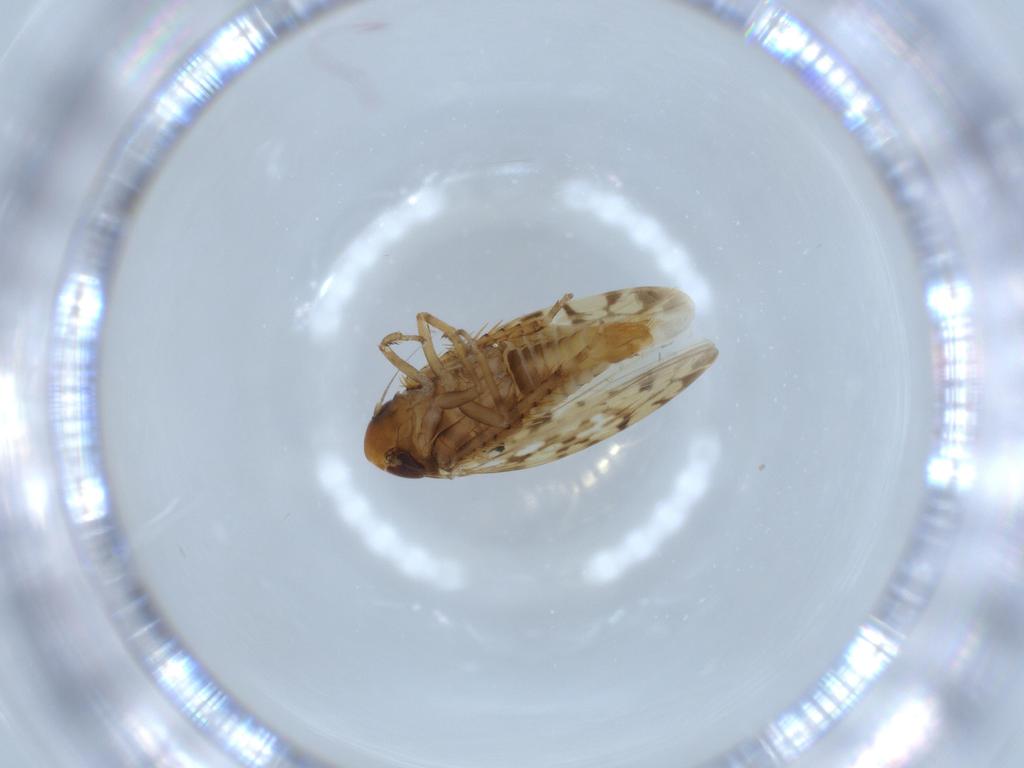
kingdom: Animalia
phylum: Arthropoda
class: Insecta
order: Hemiptera
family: Cicadellidae
